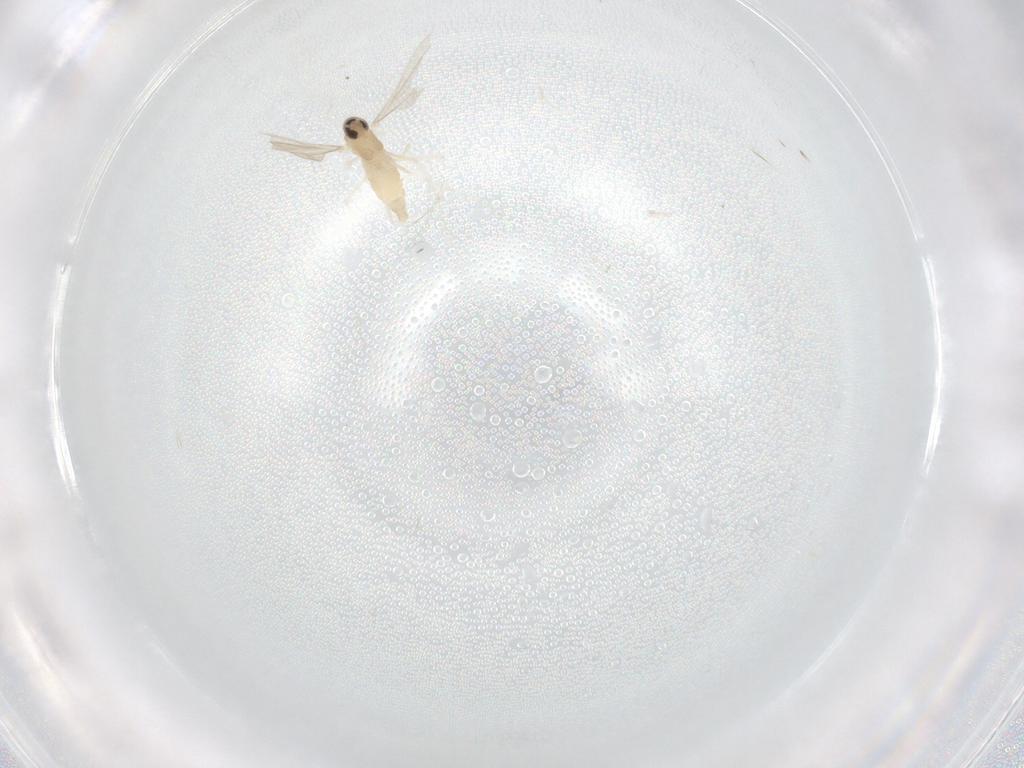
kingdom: Animalia
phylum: Arthropoda
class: Insecta
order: Diptera
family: Cecidomyiidae
